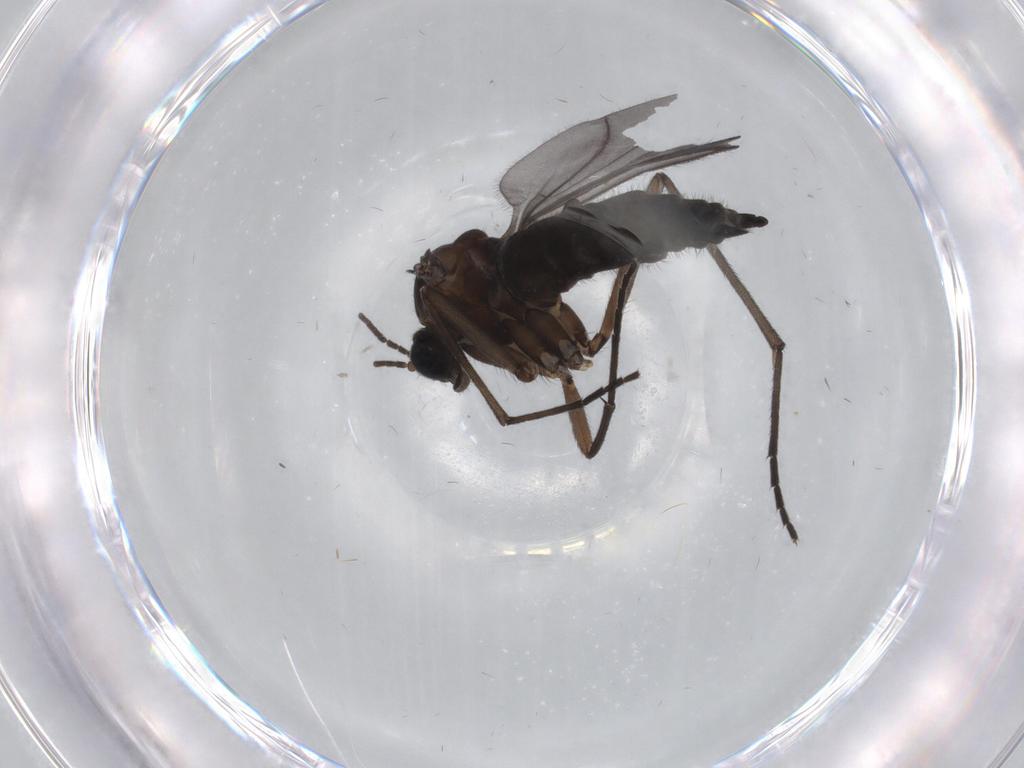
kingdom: Animalia
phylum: Arthropoda
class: Insecta
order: Diptera
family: Sciaridae
